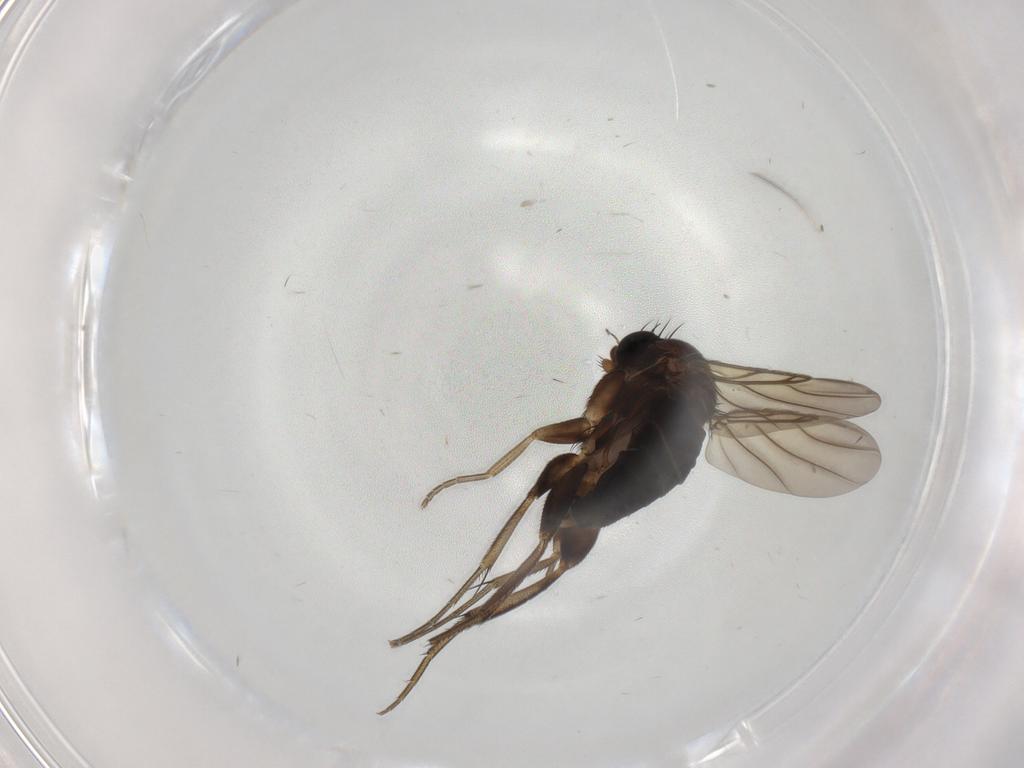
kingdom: Animalia
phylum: Arthropoda
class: Insecta
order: Diptera
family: Phoridae
